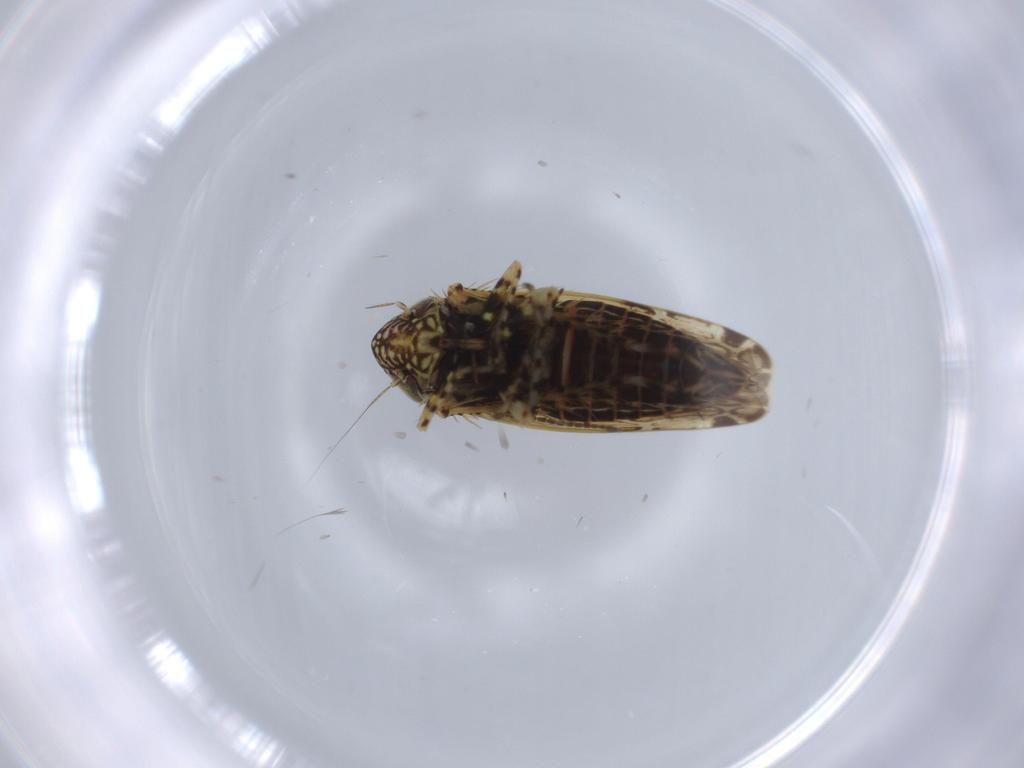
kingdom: Animalia
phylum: Arthropoda
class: Insecta
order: Hemiptera
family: Cicadellidae
